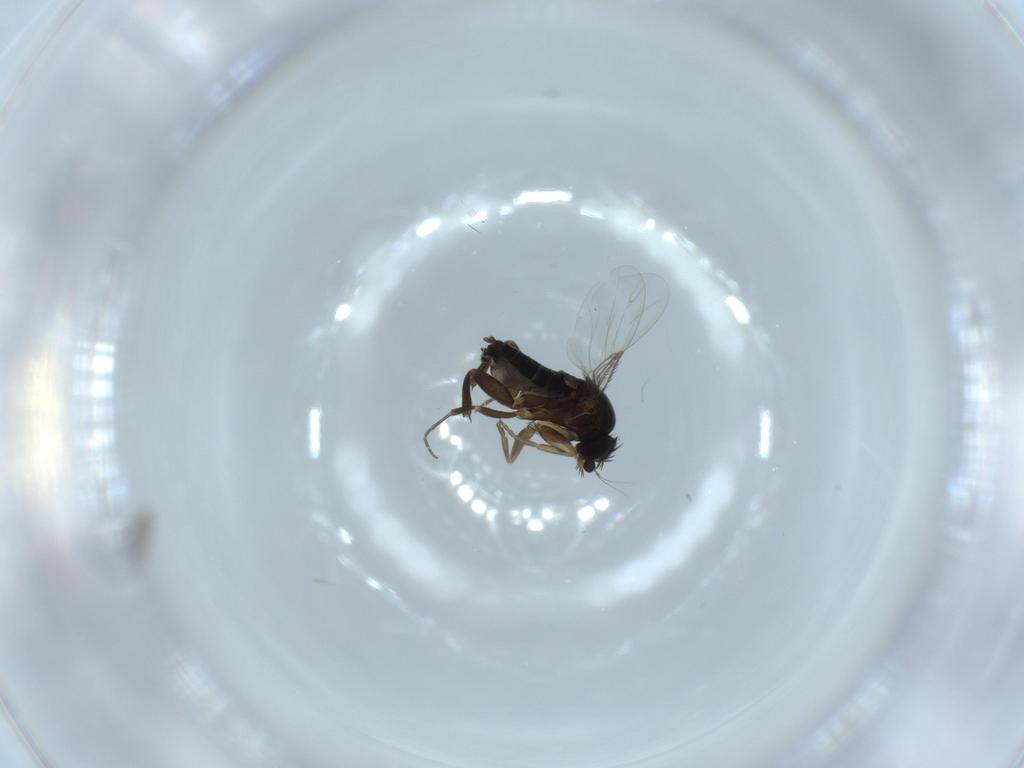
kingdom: Animalia
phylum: Arthropoda
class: Insecta
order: Diptera
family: Phoridae
